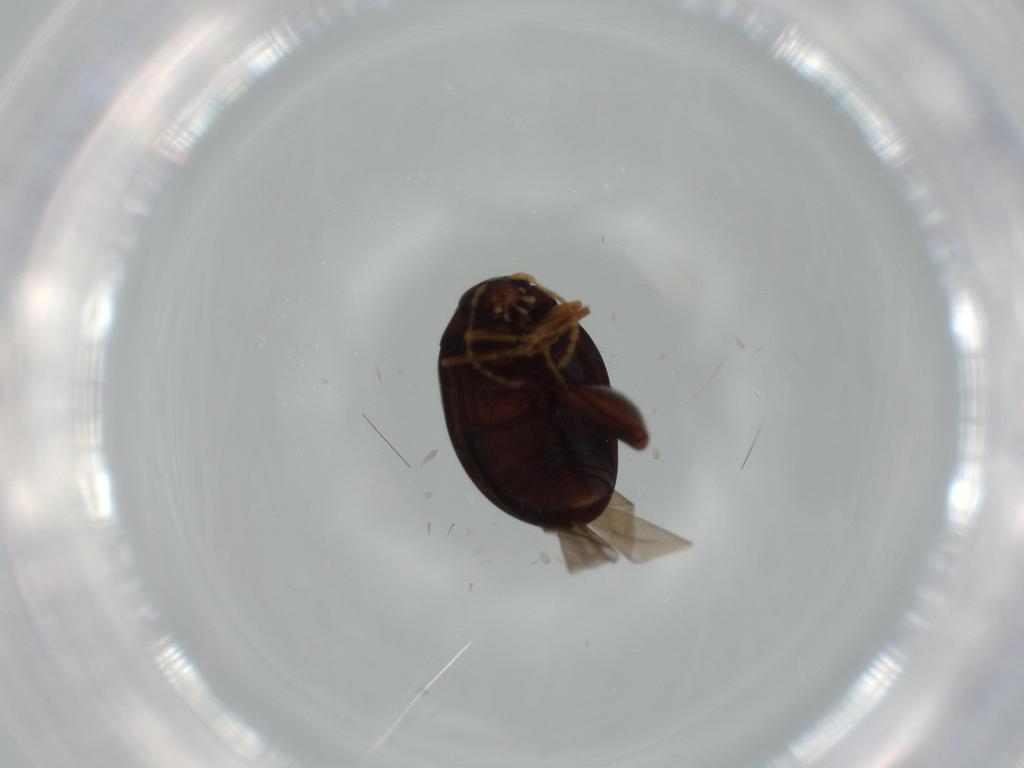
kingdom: Animalia
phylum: Arthropoda
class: Insecta
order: Coleoptera
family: Chrysomelidae
